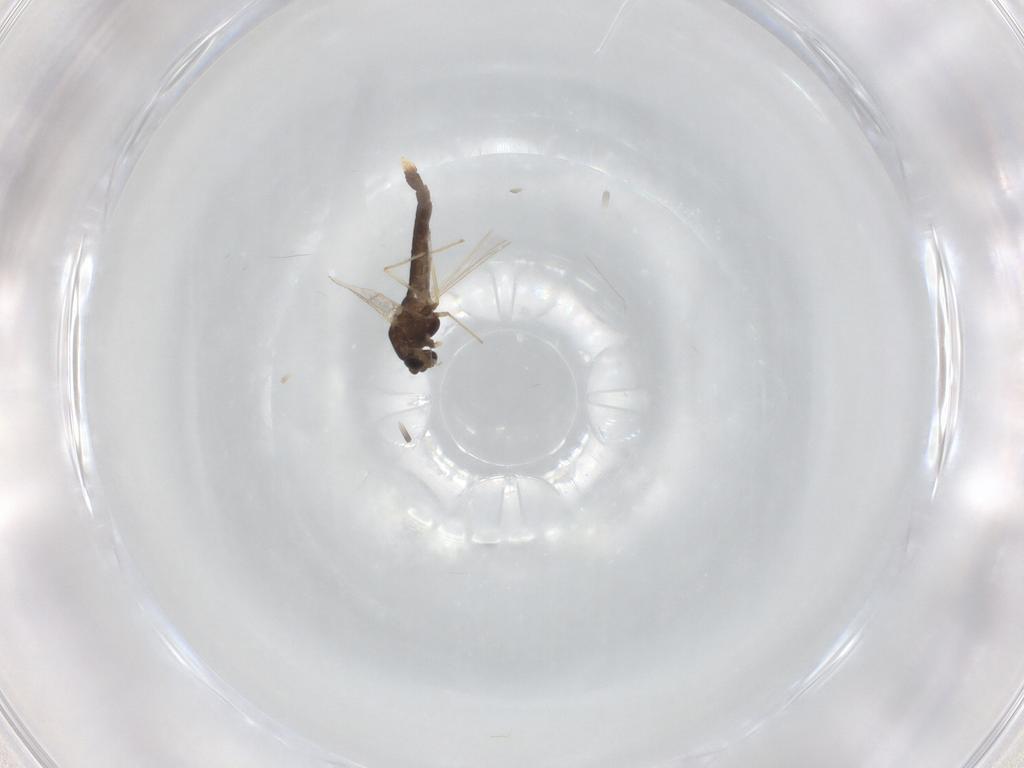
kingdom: Animalia
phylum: Arthropoda
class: Insecta
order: Diptera
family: Chironomidae
